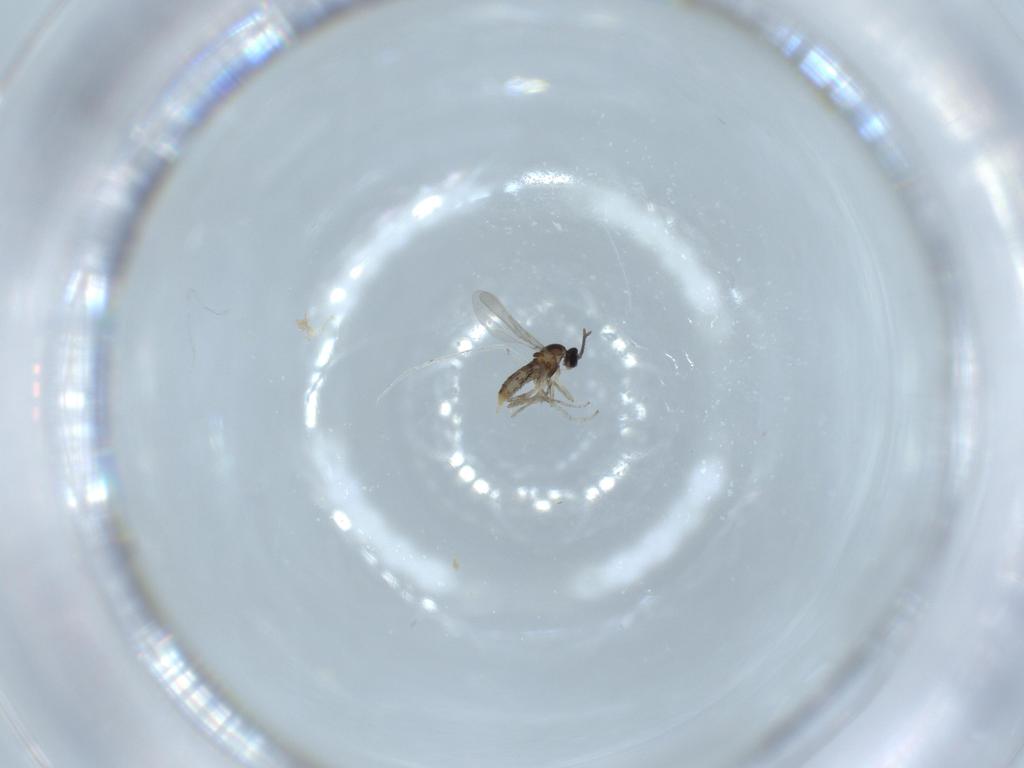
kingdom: Animalia
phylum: Arthropoda
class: Insecta
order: Diptera
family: Cecidomyiidae
